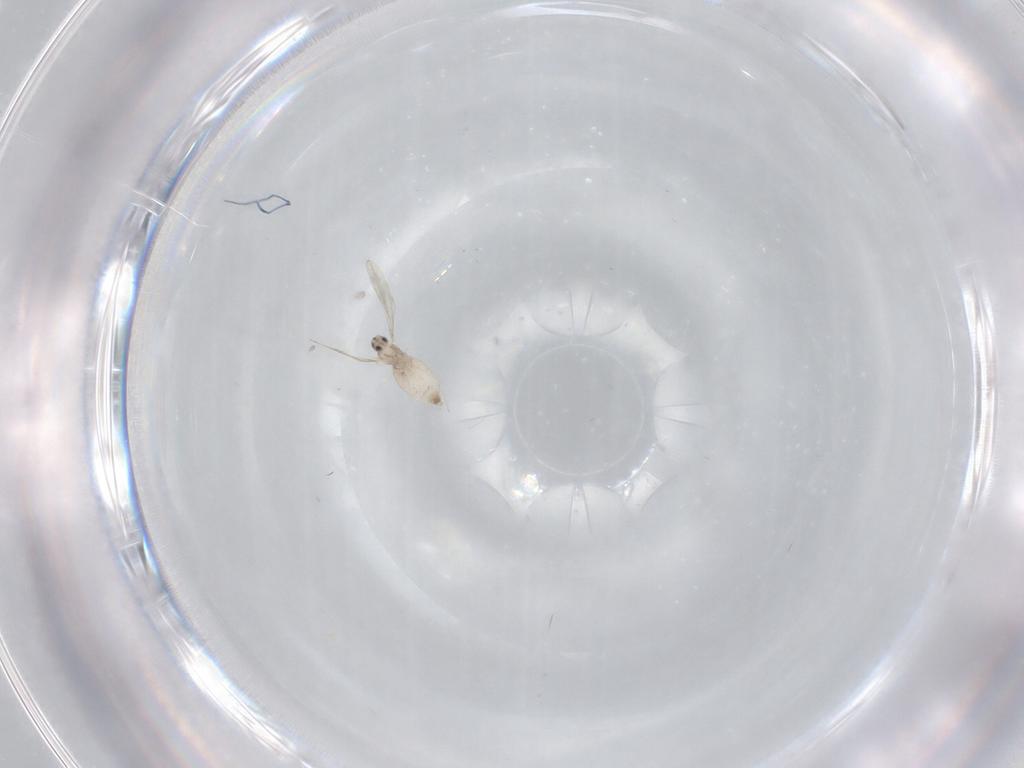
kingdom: Animalia
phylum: Arthropoda
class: Insecta
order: Diptera
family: Cecidomyiidae
